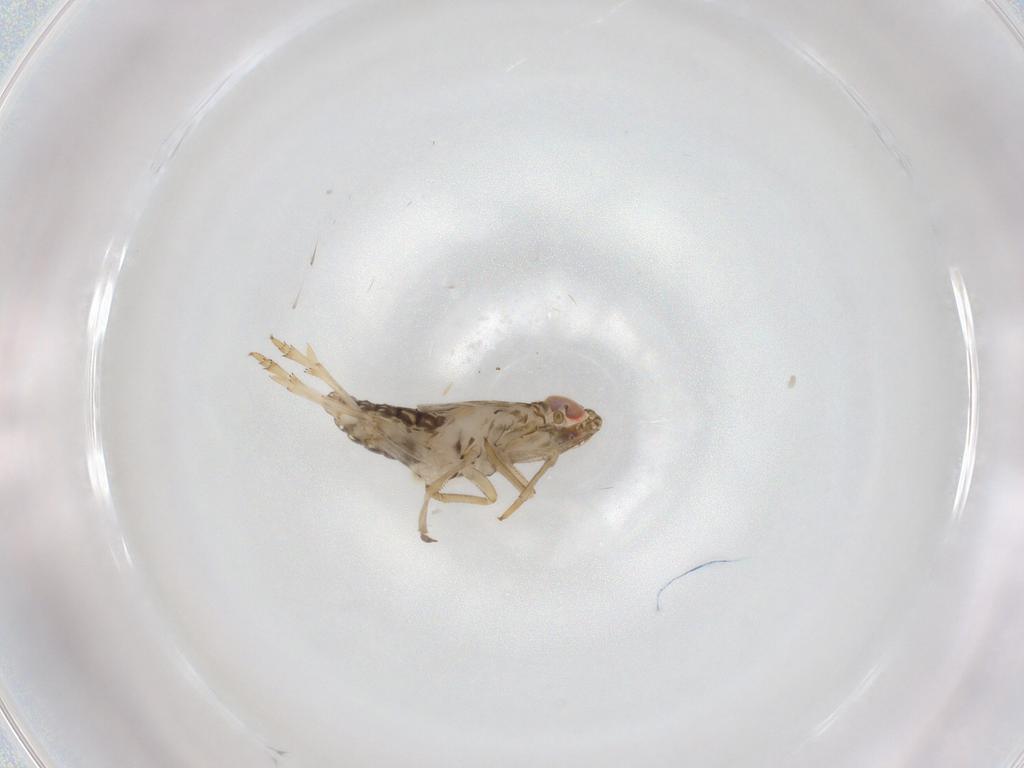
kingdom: Animalia
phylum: Arthropoda
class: Insecta
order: Hemiptera
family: Delphacidae
